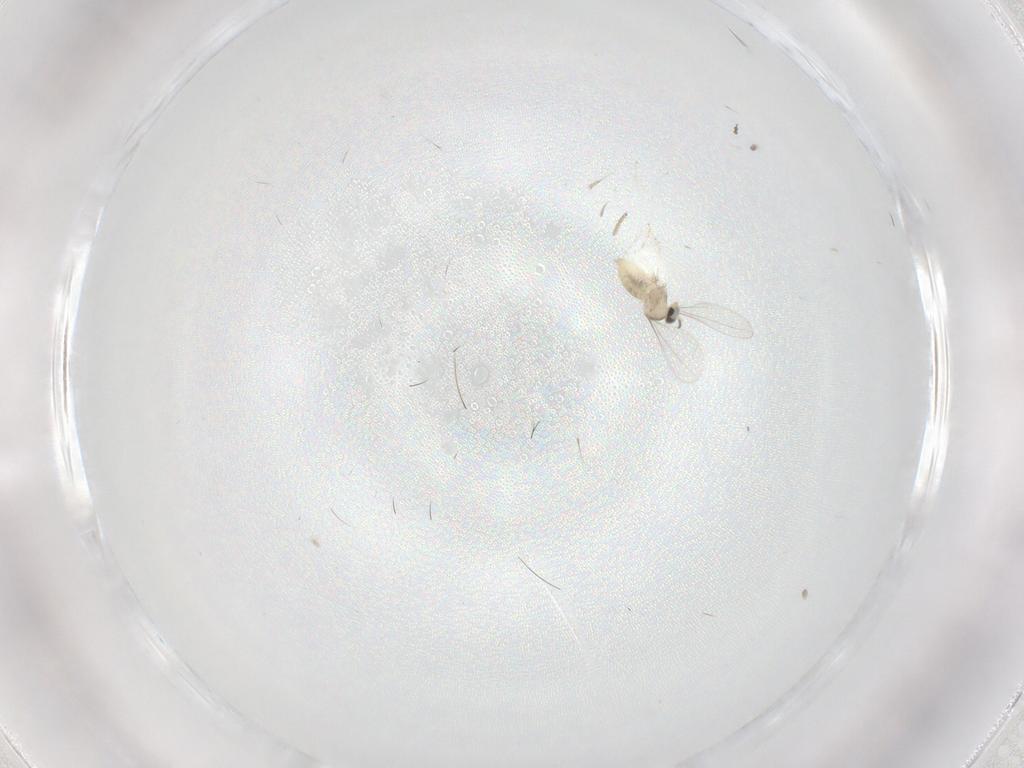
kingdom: Animalia
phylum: Arthropoda
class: Insecta
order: Diptera
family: Cecidomyiidae
